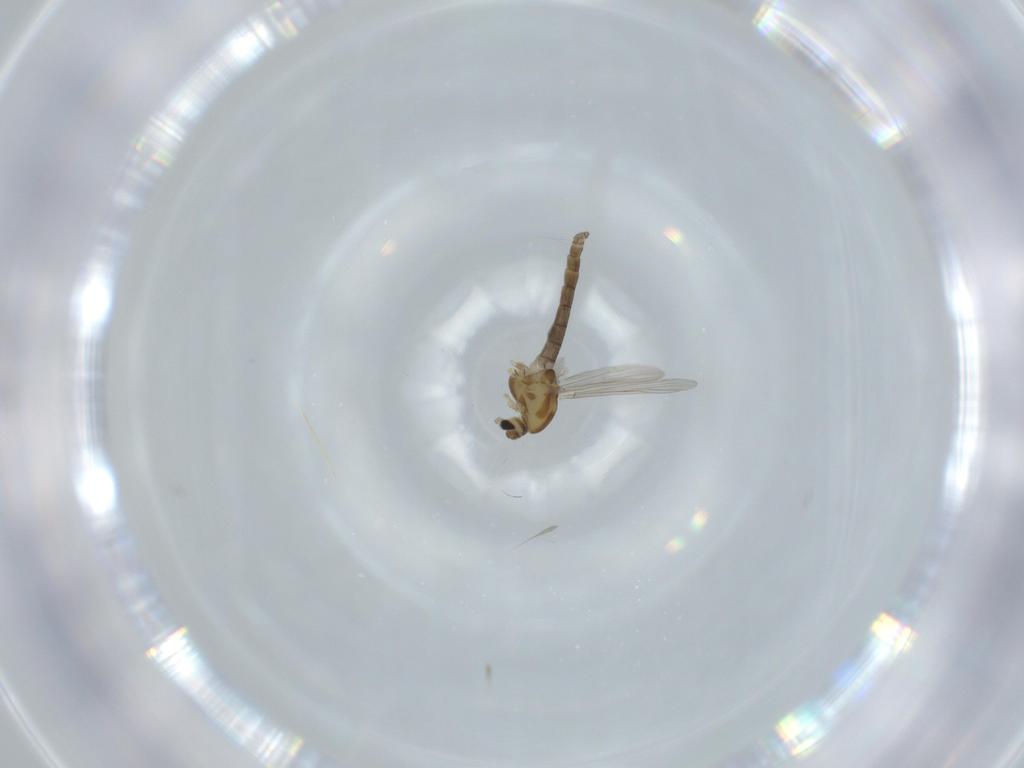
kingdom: Animalia
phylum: Arthropoda
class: Insecta
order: Diptera
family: Chironomidae
